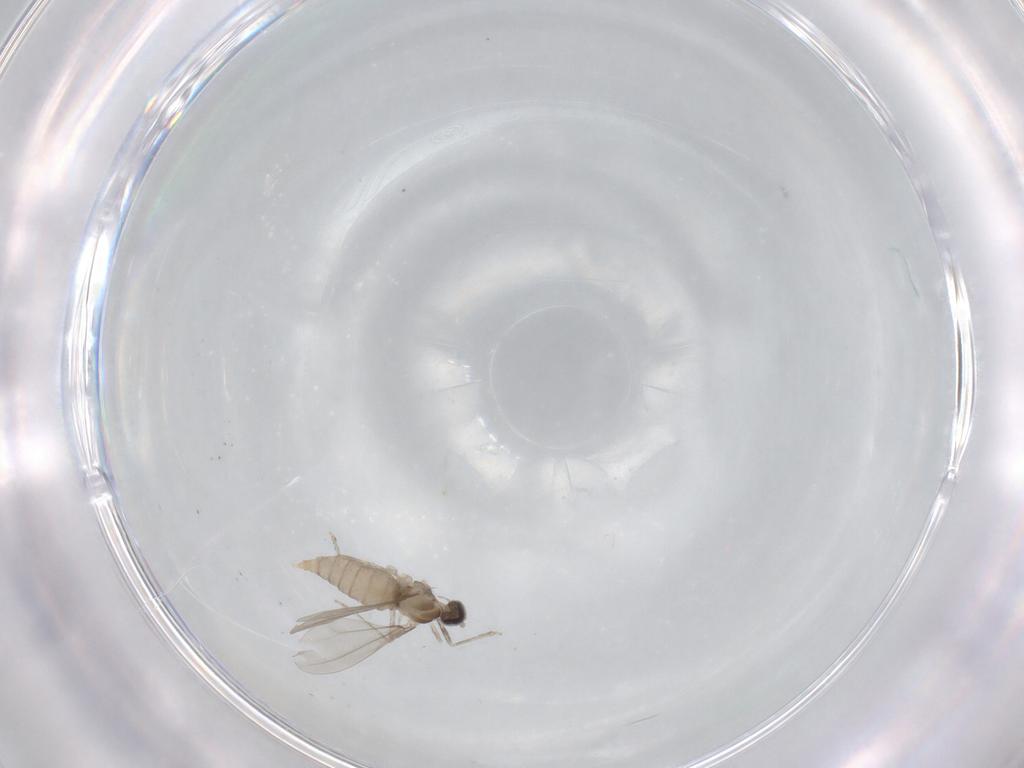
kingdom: Animalia
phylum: Arthropoda
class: Insecta
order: Diptera
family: Cecidomyiidae
